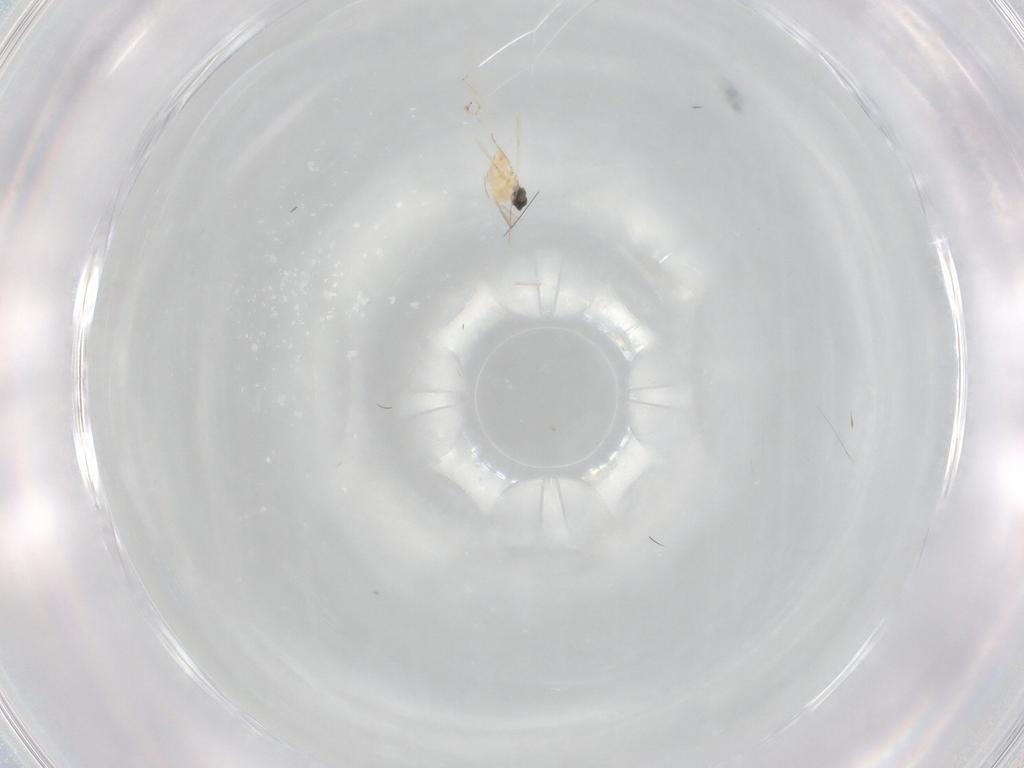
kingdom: Animalia
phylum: Arthropoda
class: Insecta
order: Diptera
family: Cecidomyiidae
